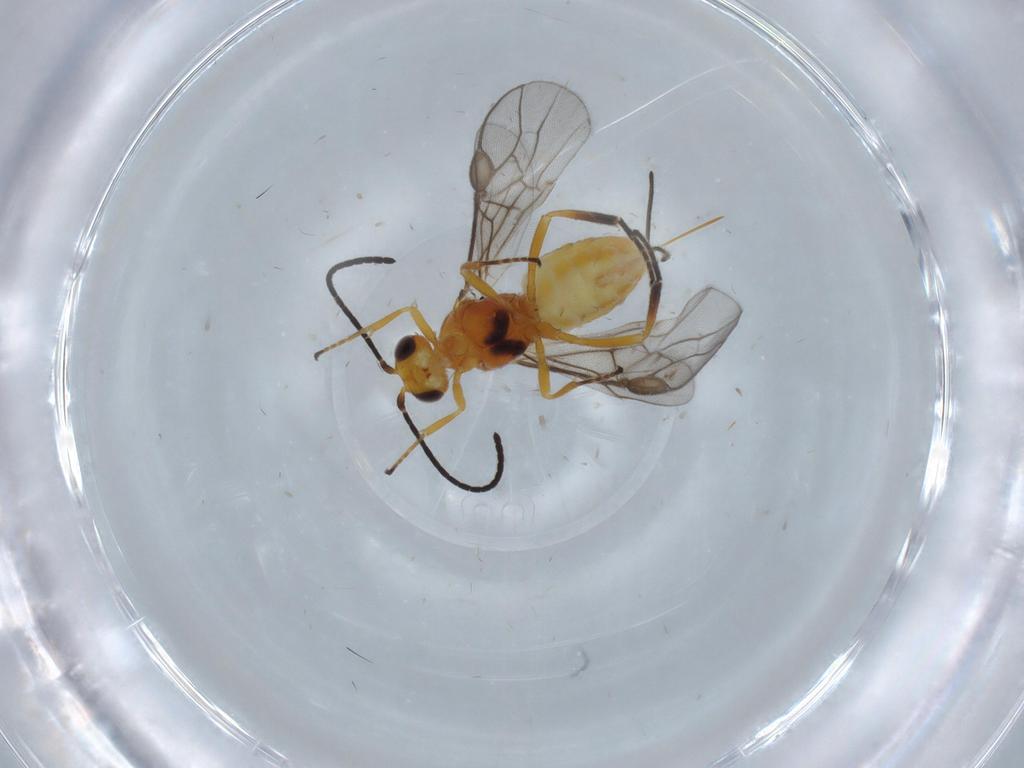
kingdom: Animalia
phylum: Arthropoda
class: Insecta
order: Hymenoptera
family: Braconidae
